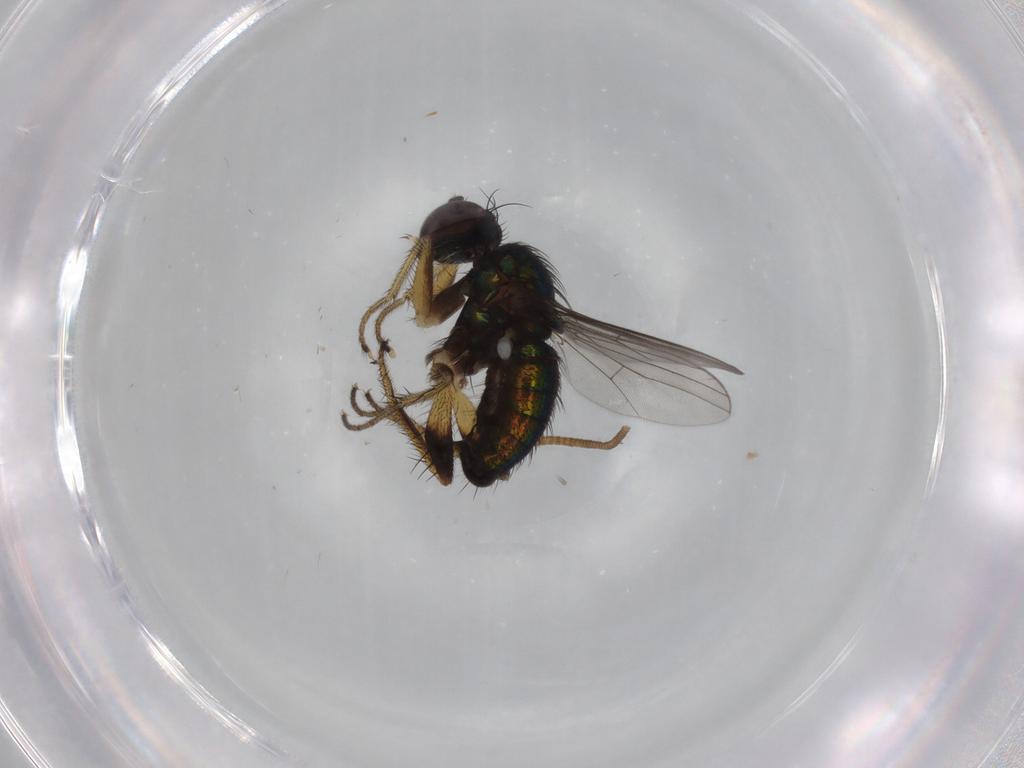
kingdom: Animalia
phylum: Arthropoda
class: Insecta
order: Diptera
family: Dolichopodidae
